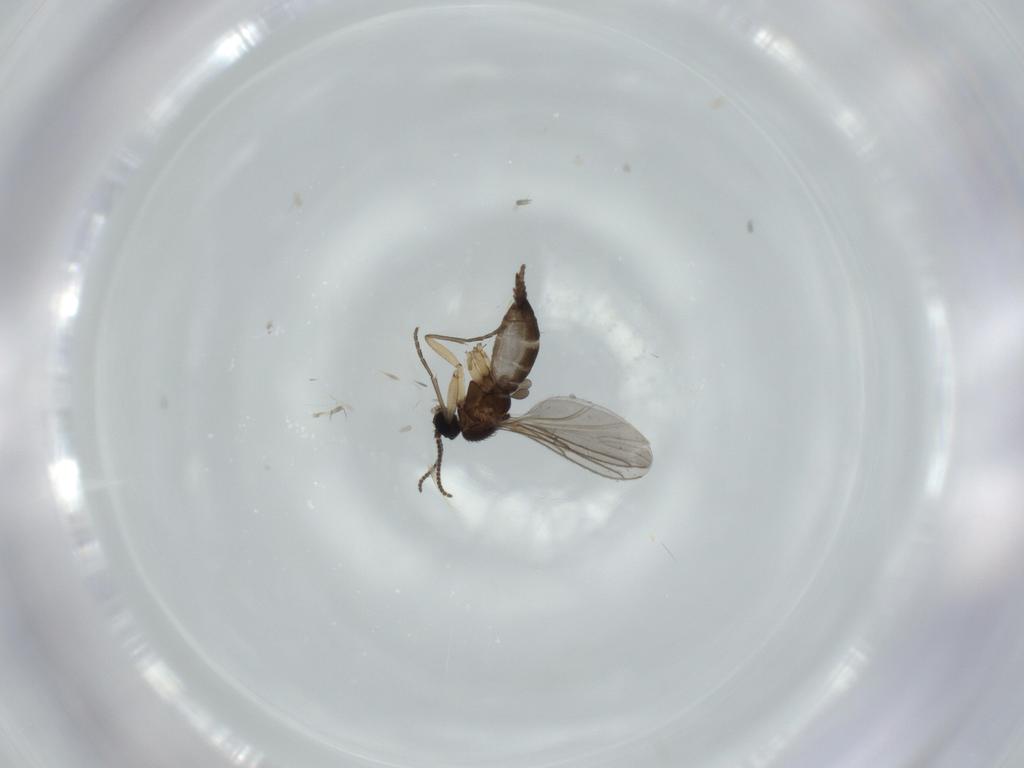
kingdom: Animalia
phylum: Arthropoda
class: Insecta
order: Diptera
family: Sciaridae
